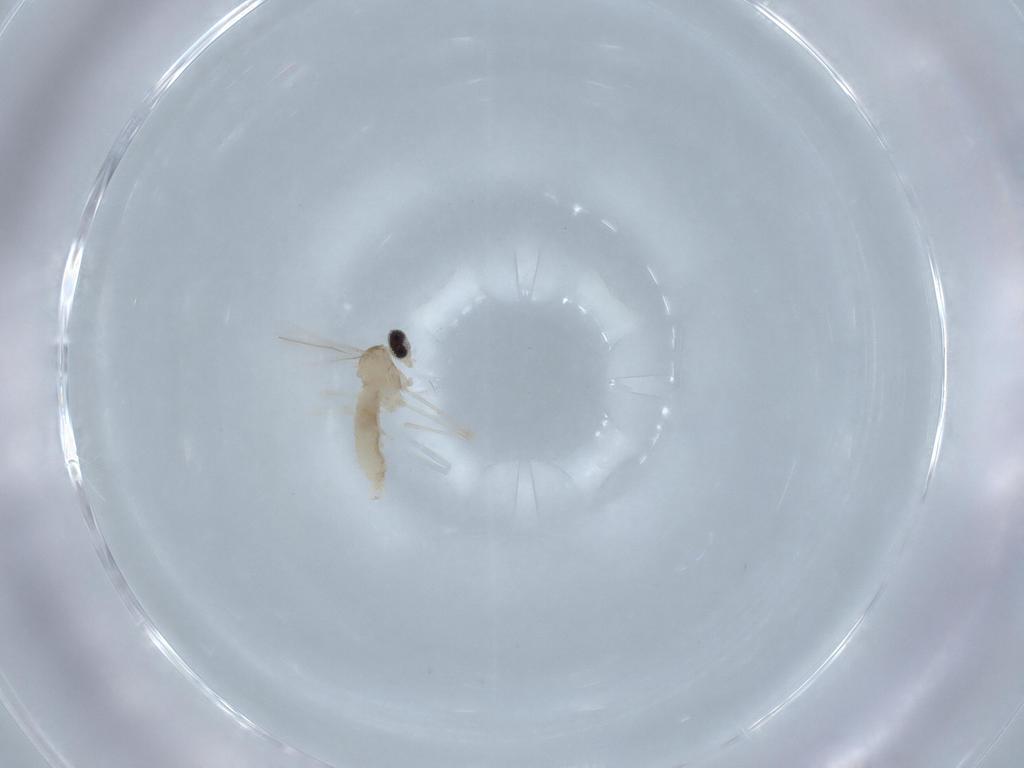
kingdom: Animalia
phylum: Arthropoda
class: Insecta
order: Diptera
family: Cecidomyiidae
